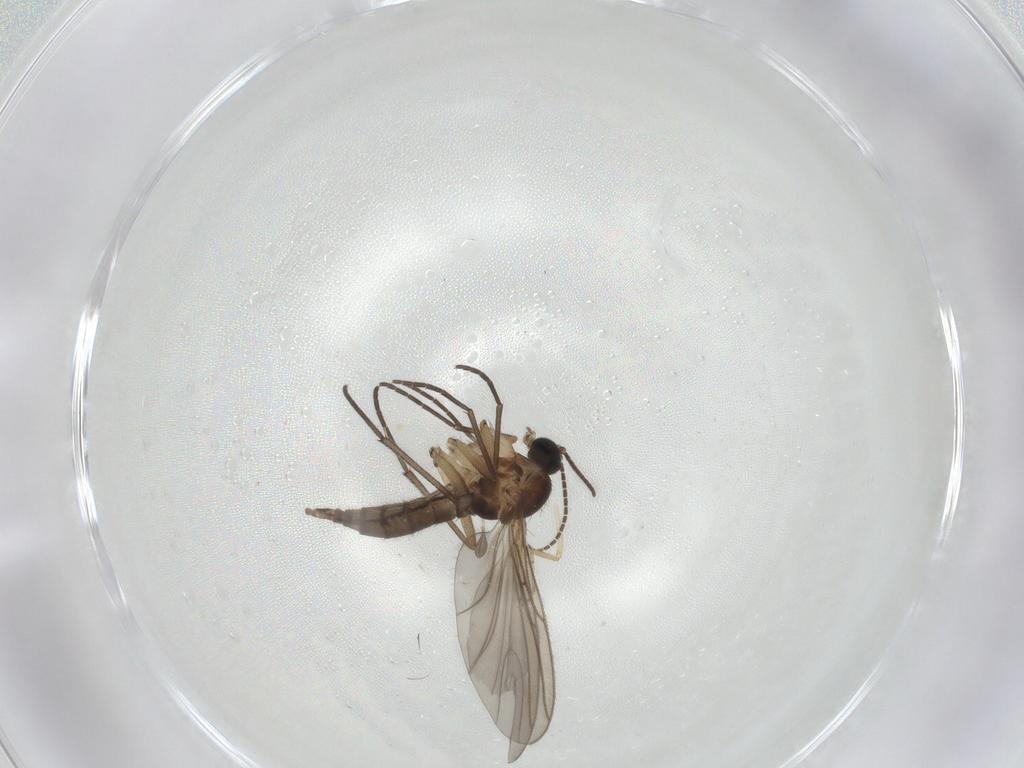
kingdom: Animalia
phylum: Arthropoda
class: Insecta
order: Diptera
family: Ceratopogonidae
